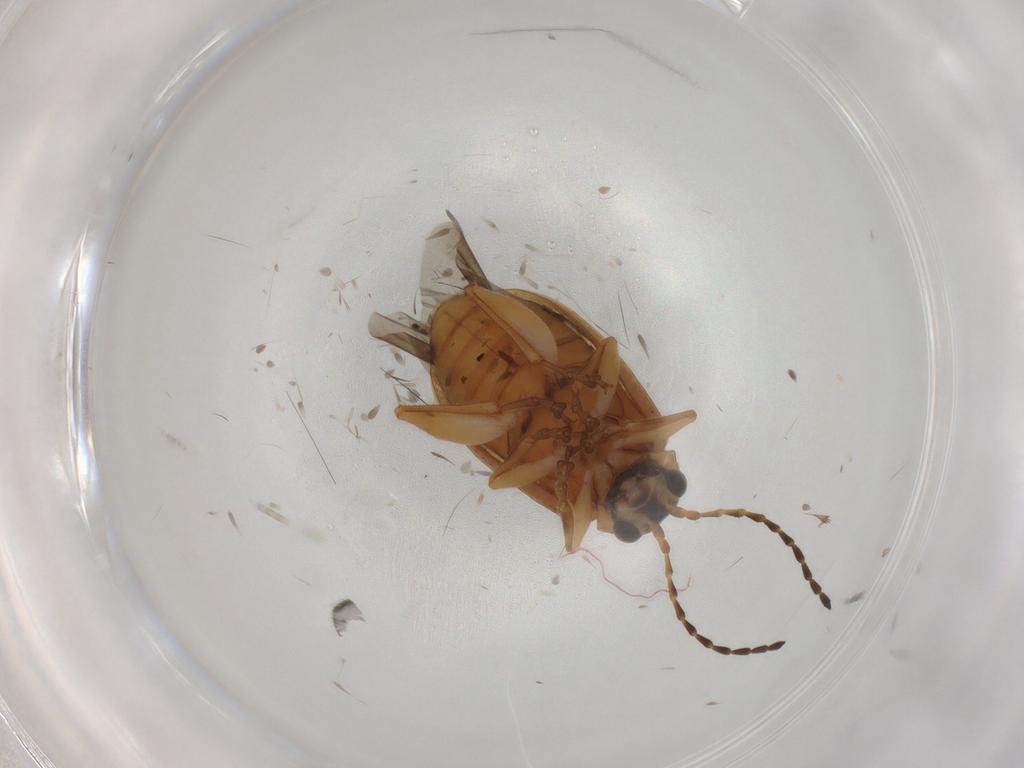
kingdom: Animalia
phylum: Arthropoda
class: Insecta
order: Coleoptera
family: Chrysomelidae
